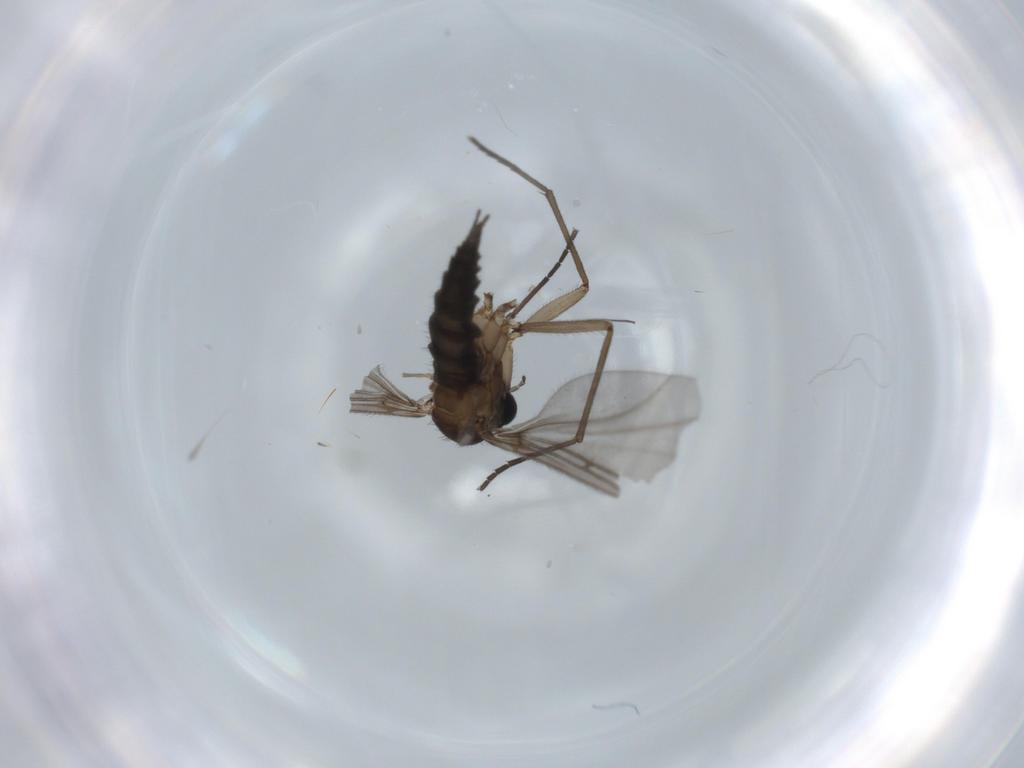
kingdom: Animalia
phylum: Arthropoda
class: Insecta
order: Diptera
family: Sciaridae
